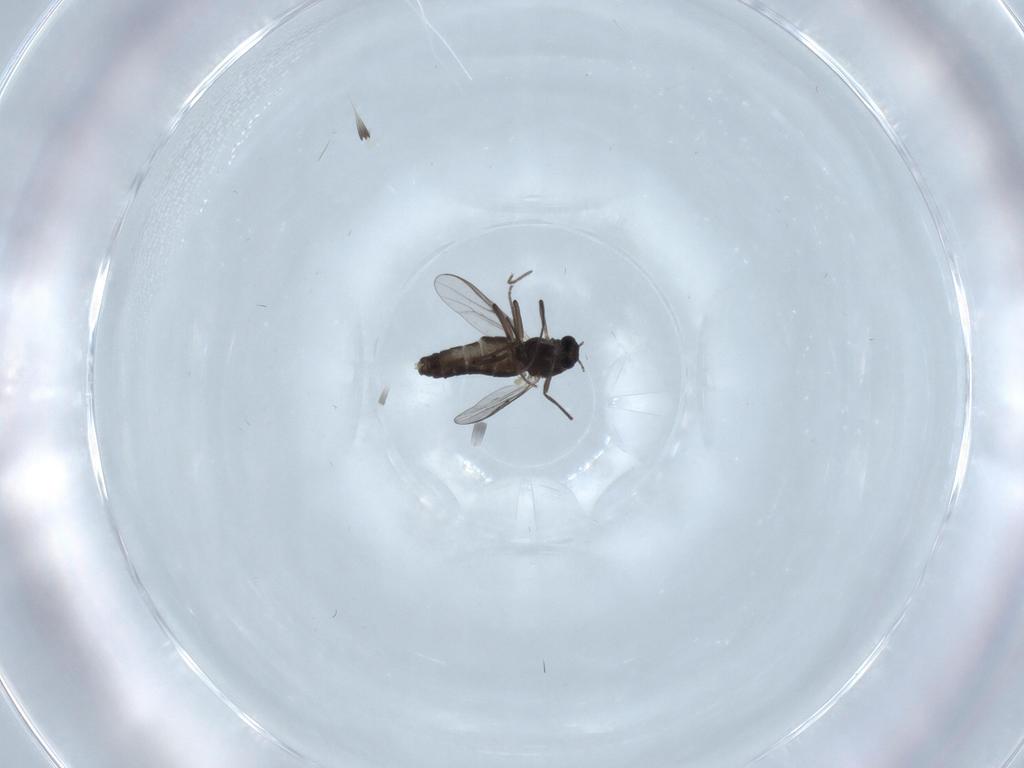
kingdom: Animalia
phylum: Arthropoda
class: Insecta
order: Diptera
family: Chironomidae
